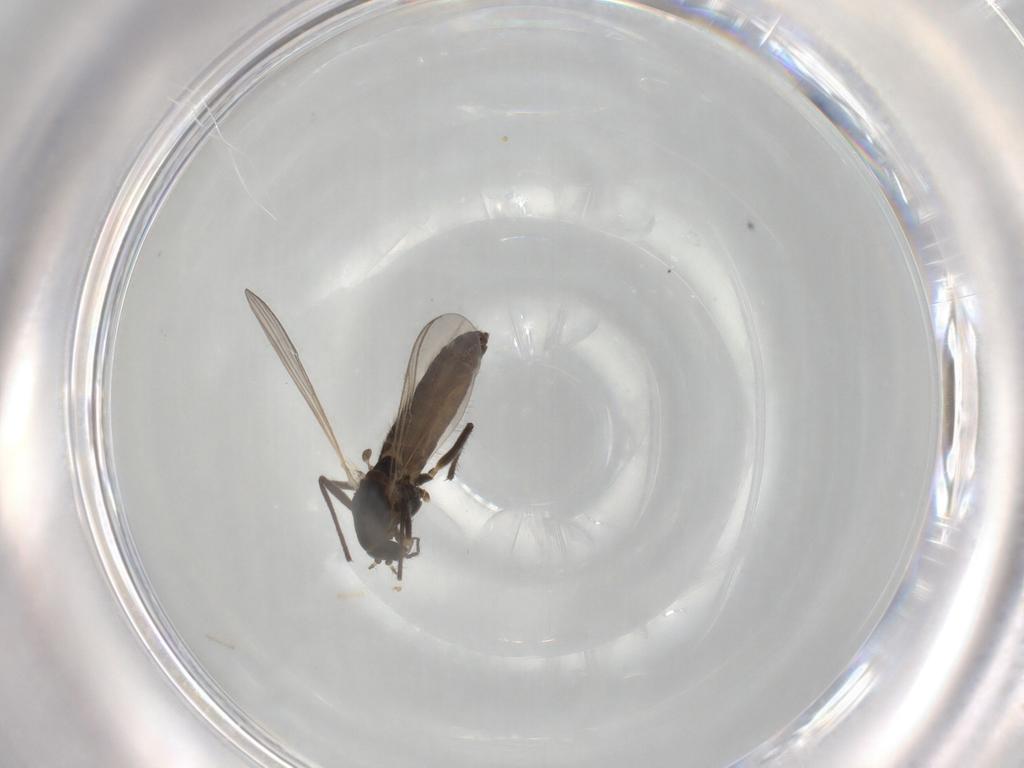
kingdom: Animalia
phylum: Arthropoda
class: Insecta
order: Diptera
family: Chironomidae
